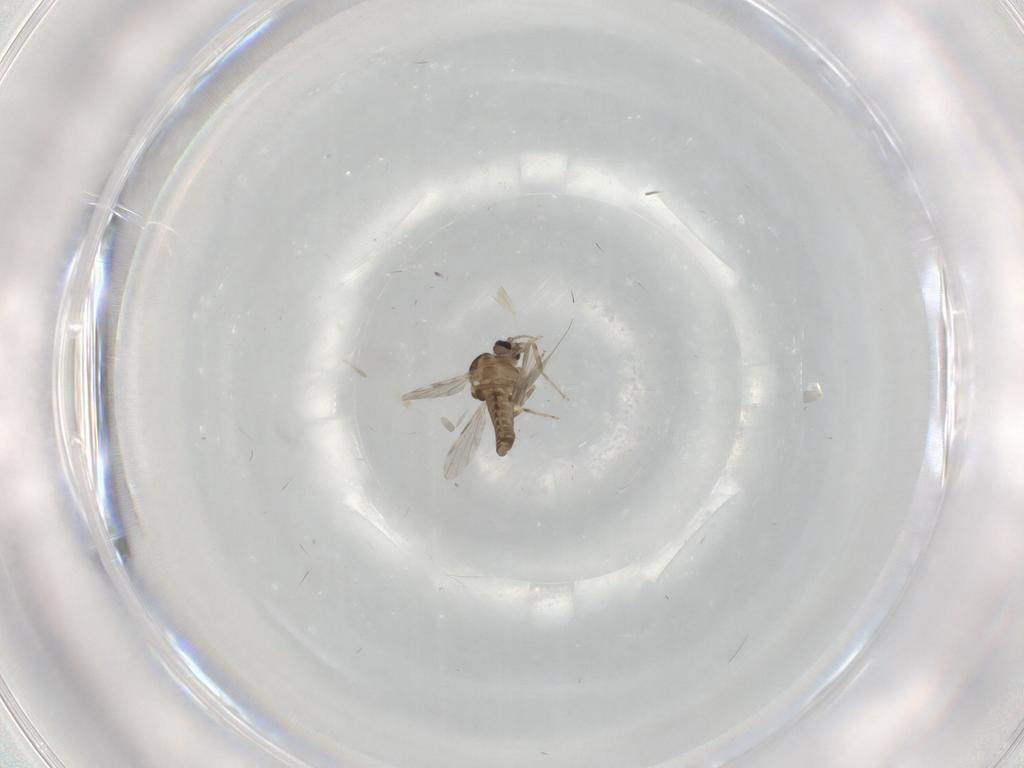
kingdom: Animalia
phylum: Arthropoda
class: Insecta
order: Diptera
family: Ceratopogonidae
